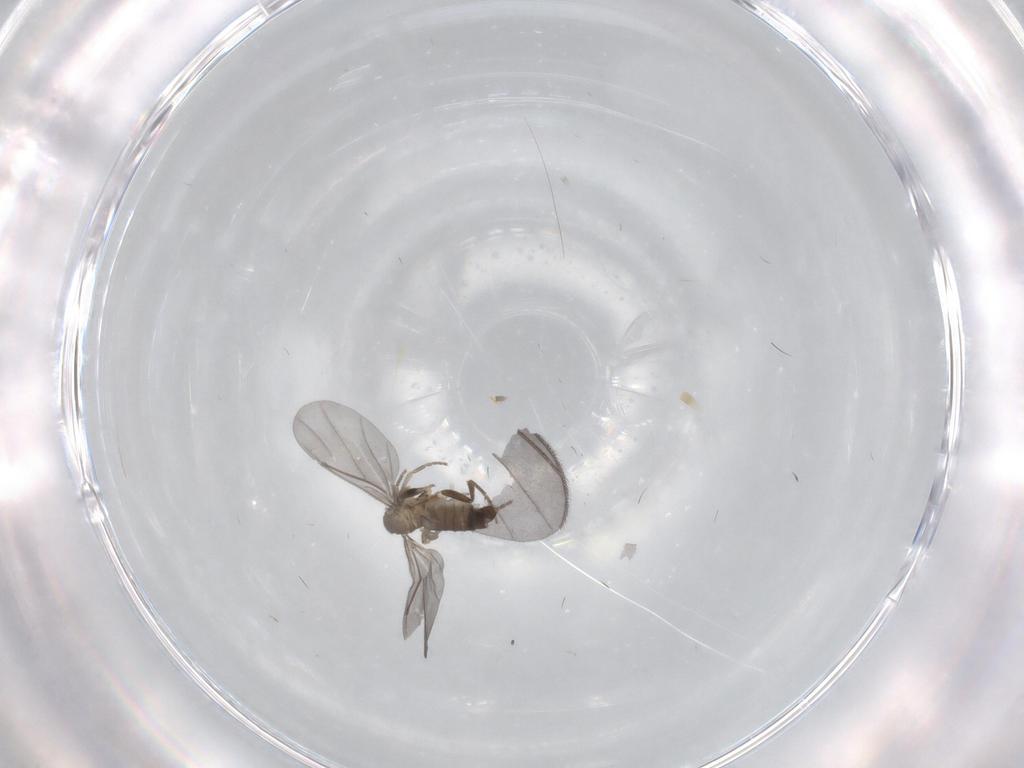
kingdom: Animalia
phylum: Arthropoda
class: Insecta
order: Diptera
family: Phoridae
